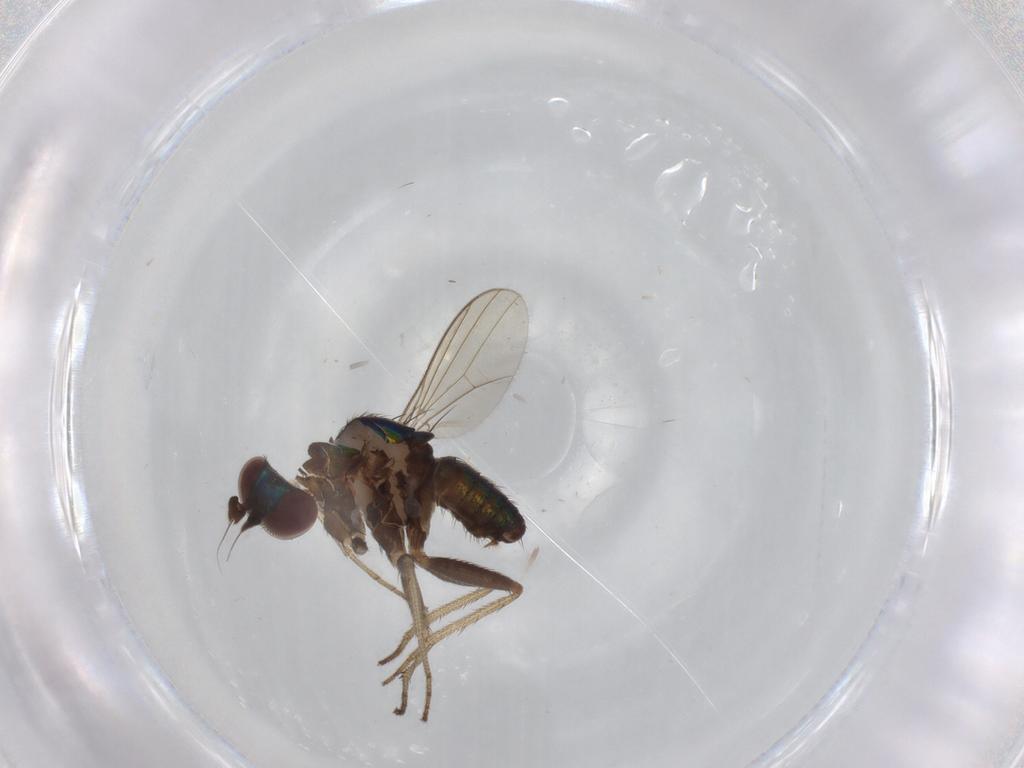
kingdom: Animalia
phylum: Arthropoda
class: Insecta
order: Diptera
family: Dolichopodidae
